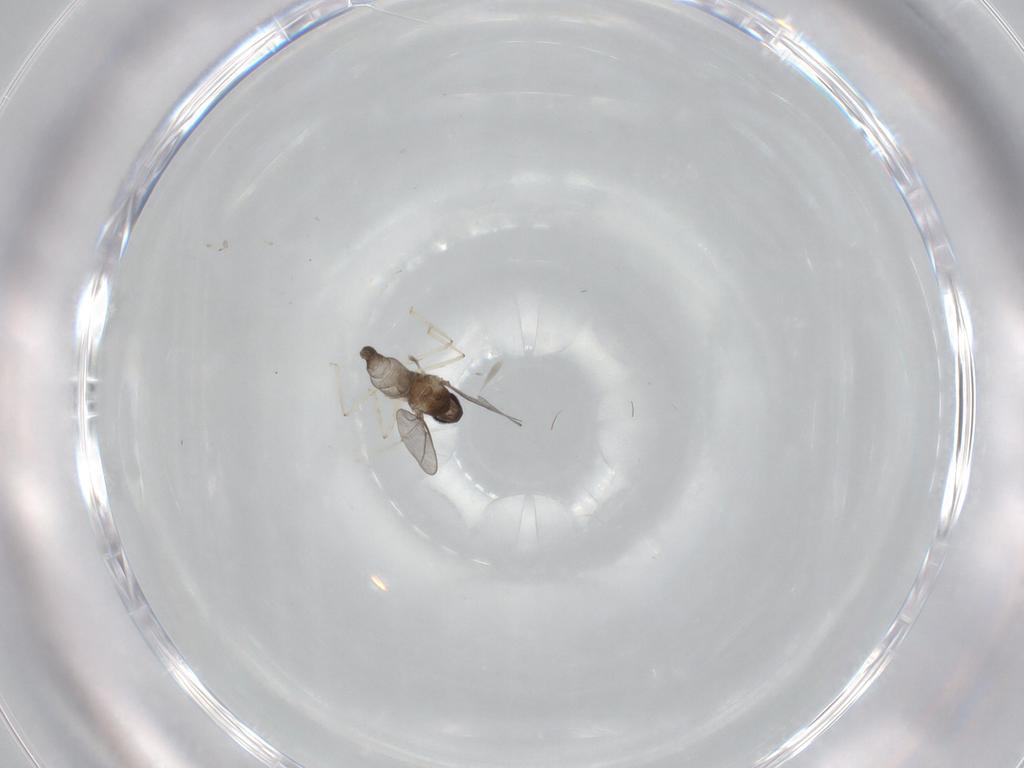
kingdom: Animalia
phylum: Arthropoda
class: Insecta
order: Diptera
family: Cecidomyiidae
